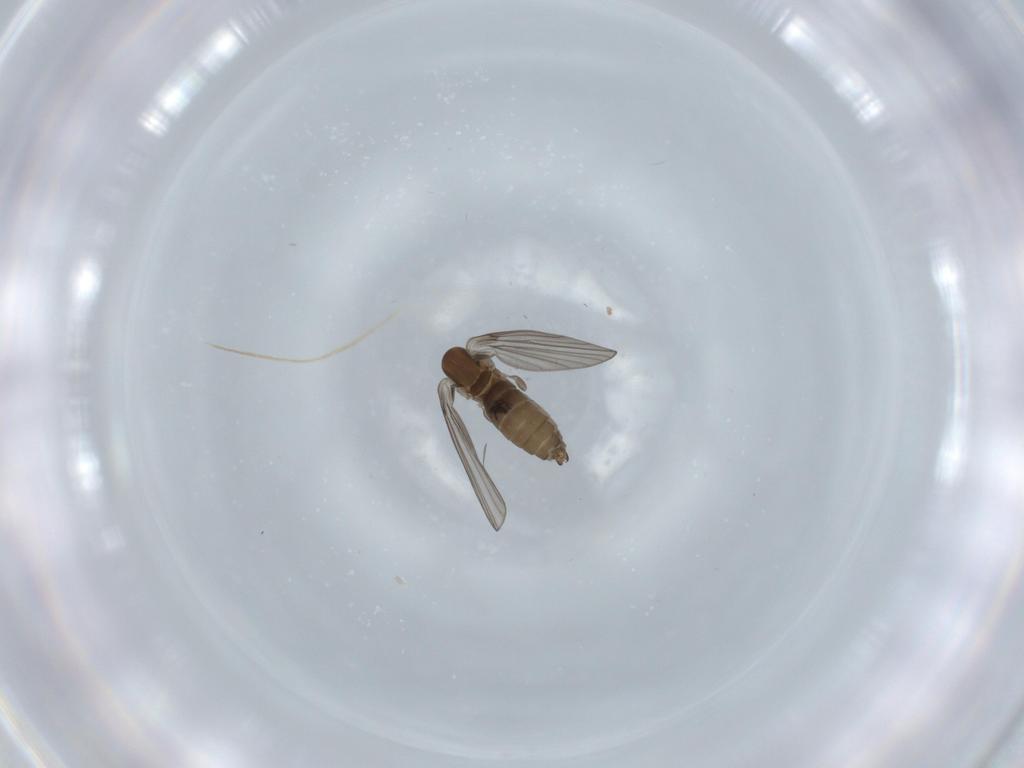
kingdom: Animalia
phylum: Arthropoda
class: Insecta
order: Diptera
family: Psychodidae
